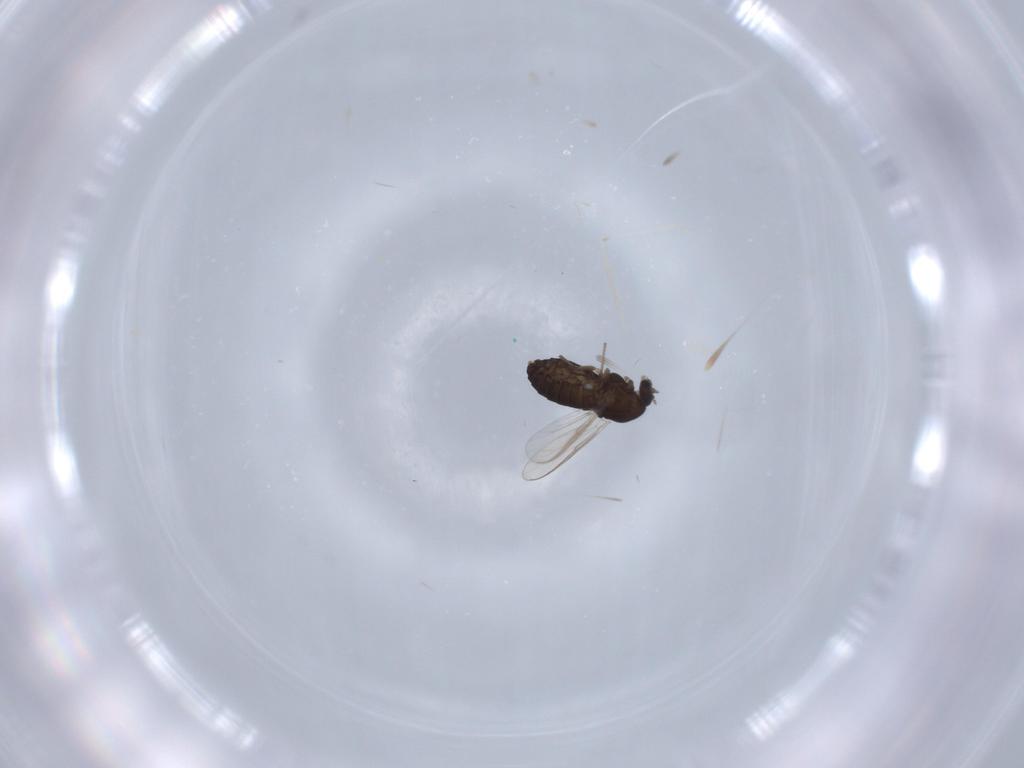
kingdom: Animalia
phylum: Arthropoda
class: Insecta
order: Diptera
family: Chironomidae
